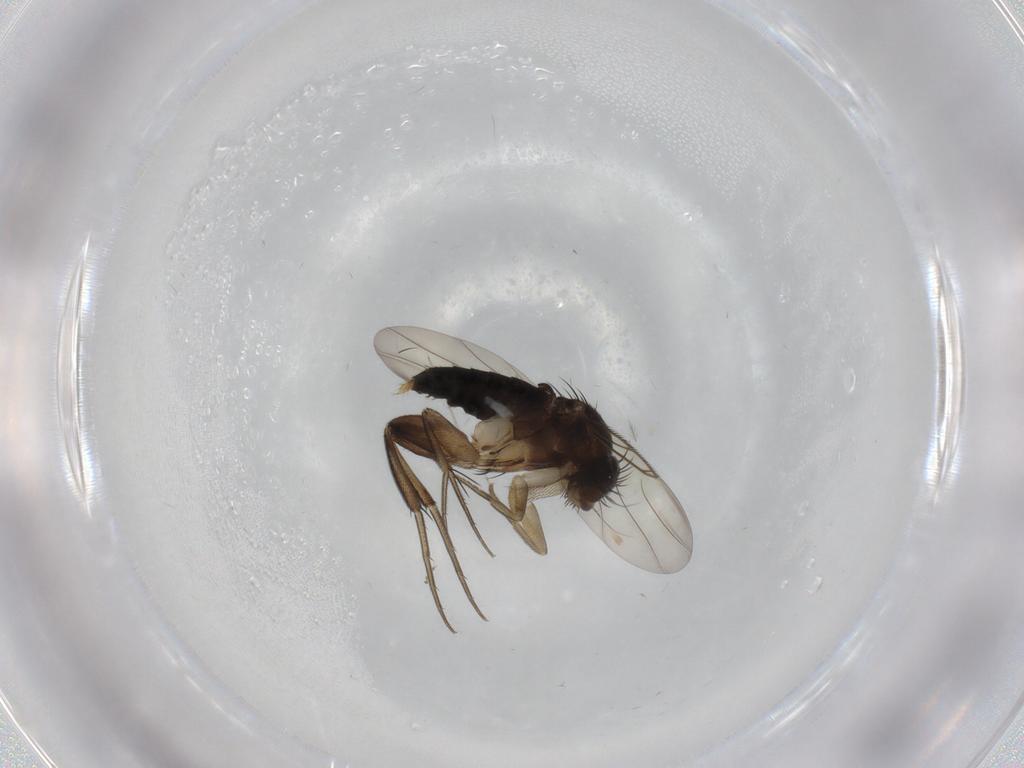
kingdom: Animalia
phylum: Arthropoda
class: Insecta
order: Diptera
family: Phoridae
